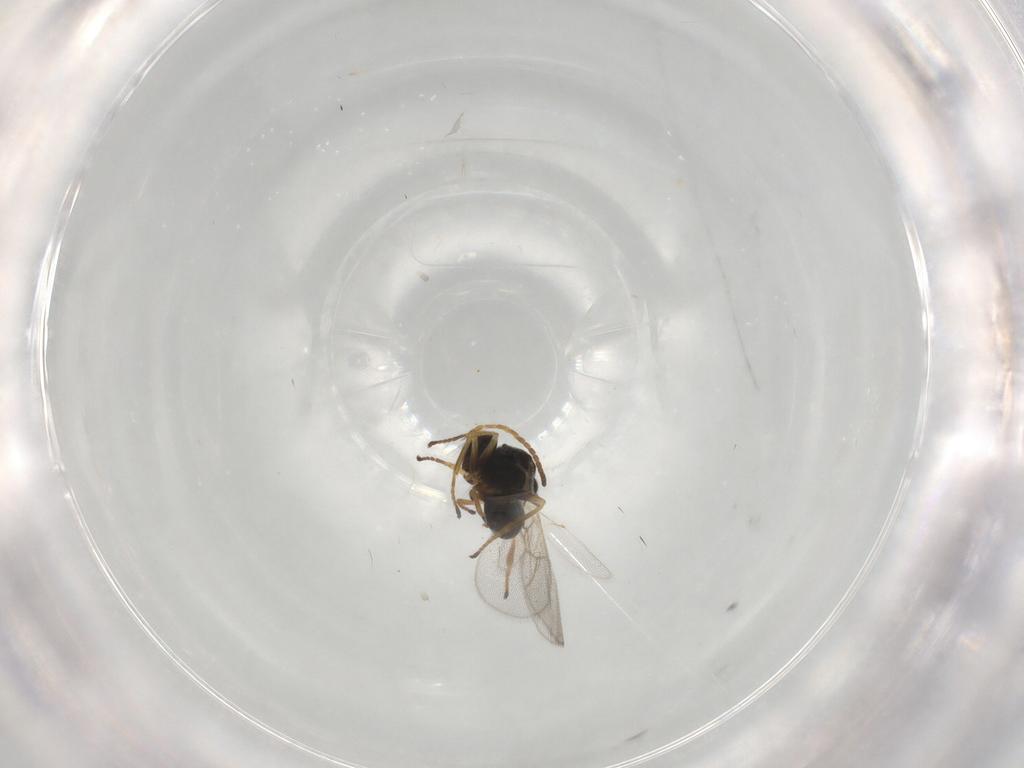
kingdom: Animalia
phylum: Arthropoda
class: Insecta
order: Hymenoptera
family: Figitidae
